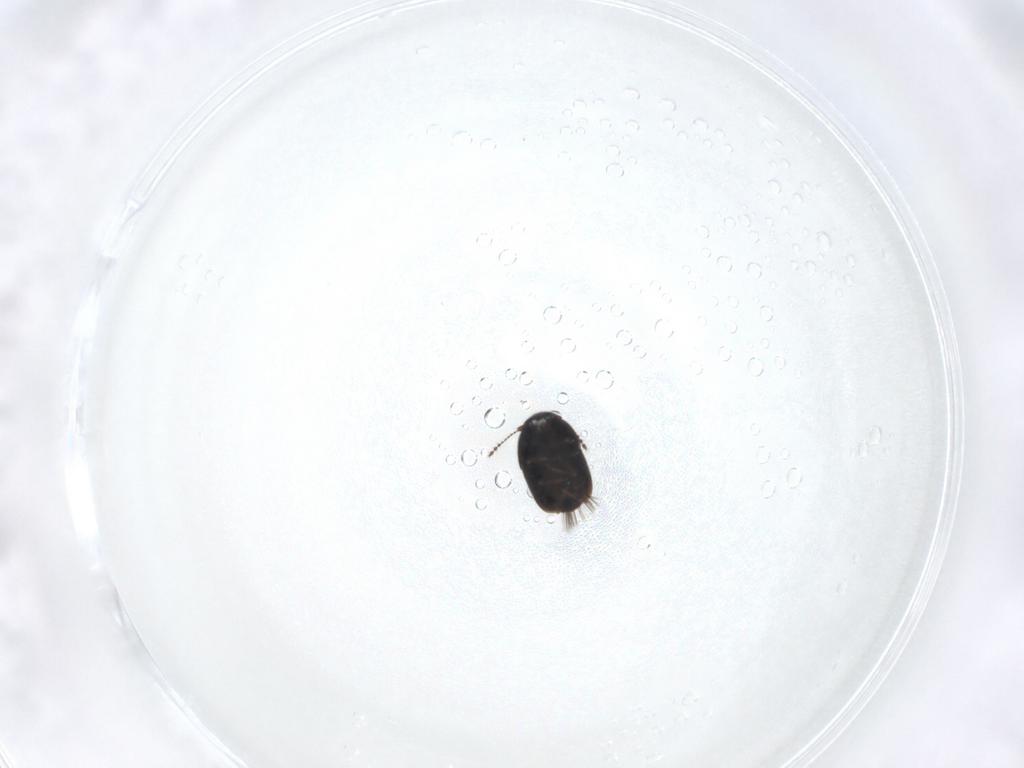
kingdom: Animalia
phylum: Arthropoda
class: Insecta
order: Coleoptera
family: Ptiliidae
